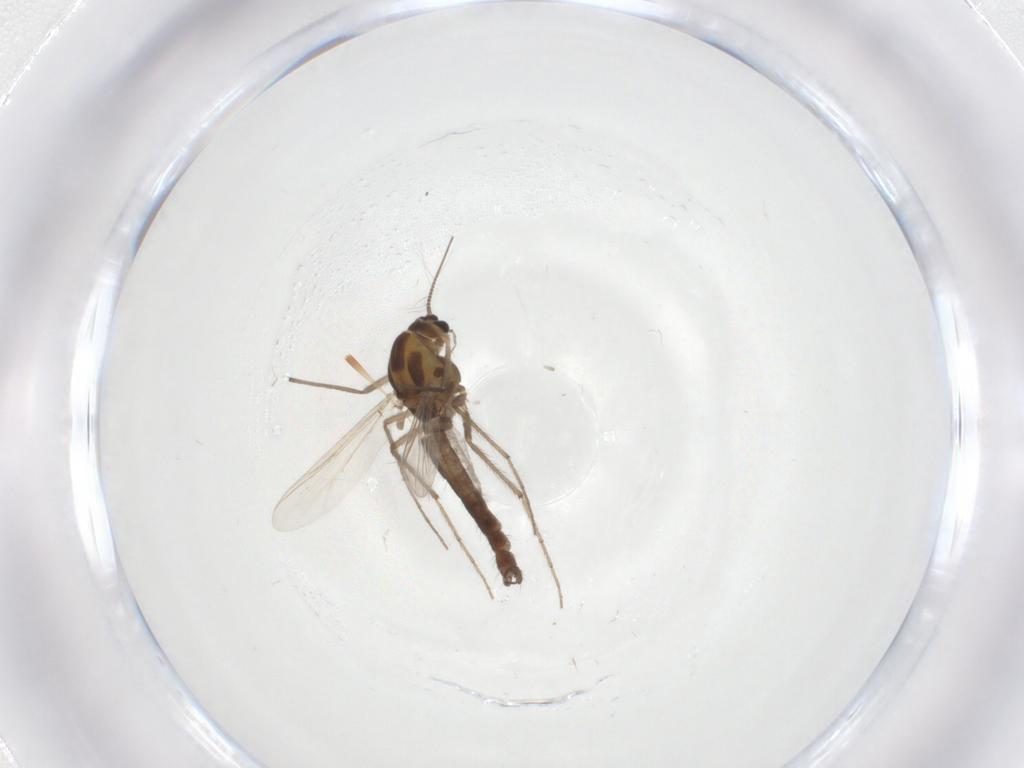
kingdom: Animalia
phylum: Arthropoda
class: Insecta
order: Diptera
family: Chironomidae
